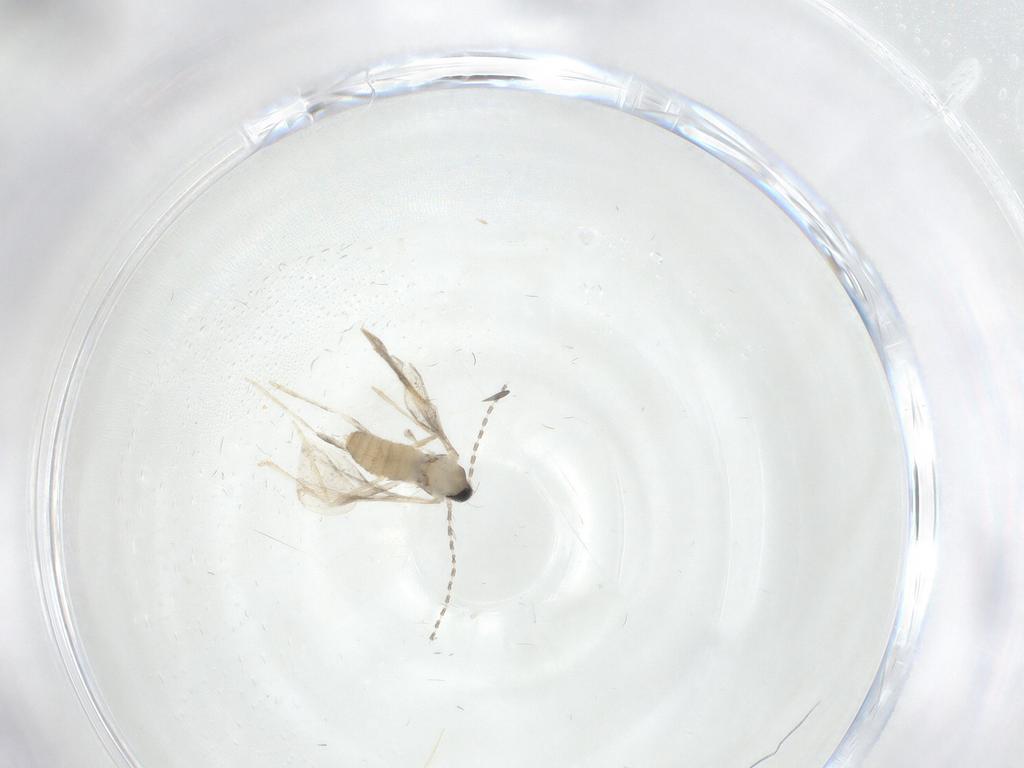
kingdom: Animalia
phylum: Arthropoda
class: Insecta
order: Diptera
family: Cecidomyiidae
